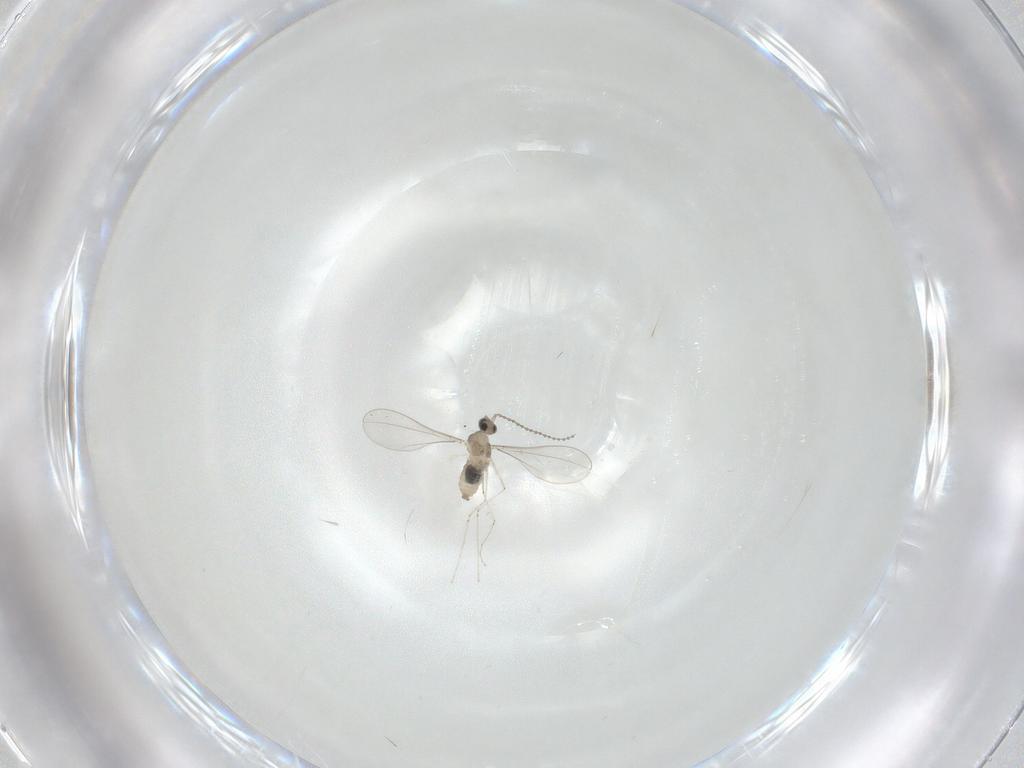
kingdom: Animalia
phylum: Arthropoda
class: Insecta
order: Diptera
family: Cecidomyiidae
